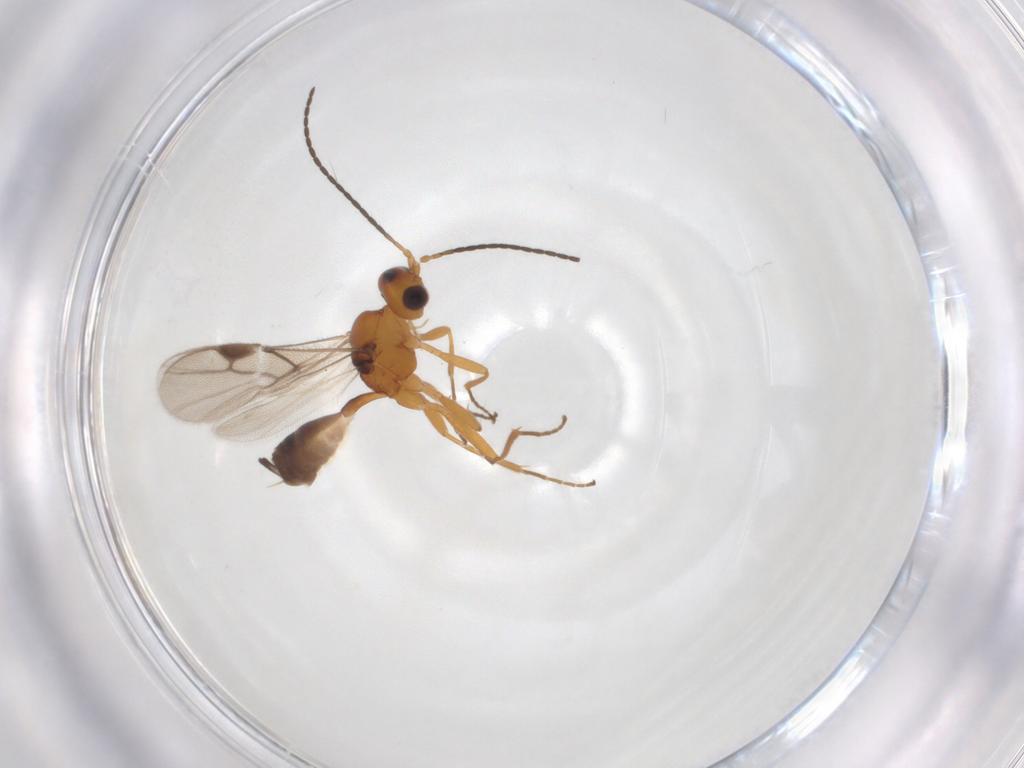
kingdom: Animalia
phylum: Arthropoda
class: Insecta
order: Hymenoptera
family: Braconidae
